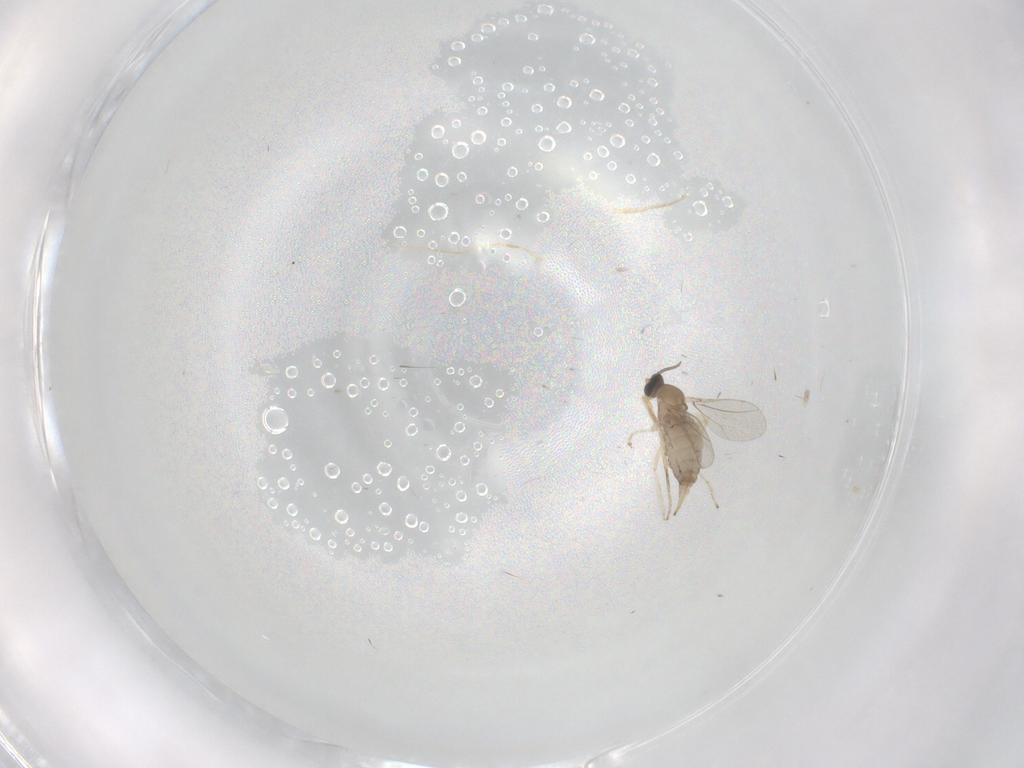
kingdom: Animalia
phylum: Arthropoda
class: Insecta
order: Diptera
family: Cecidomyiidae
